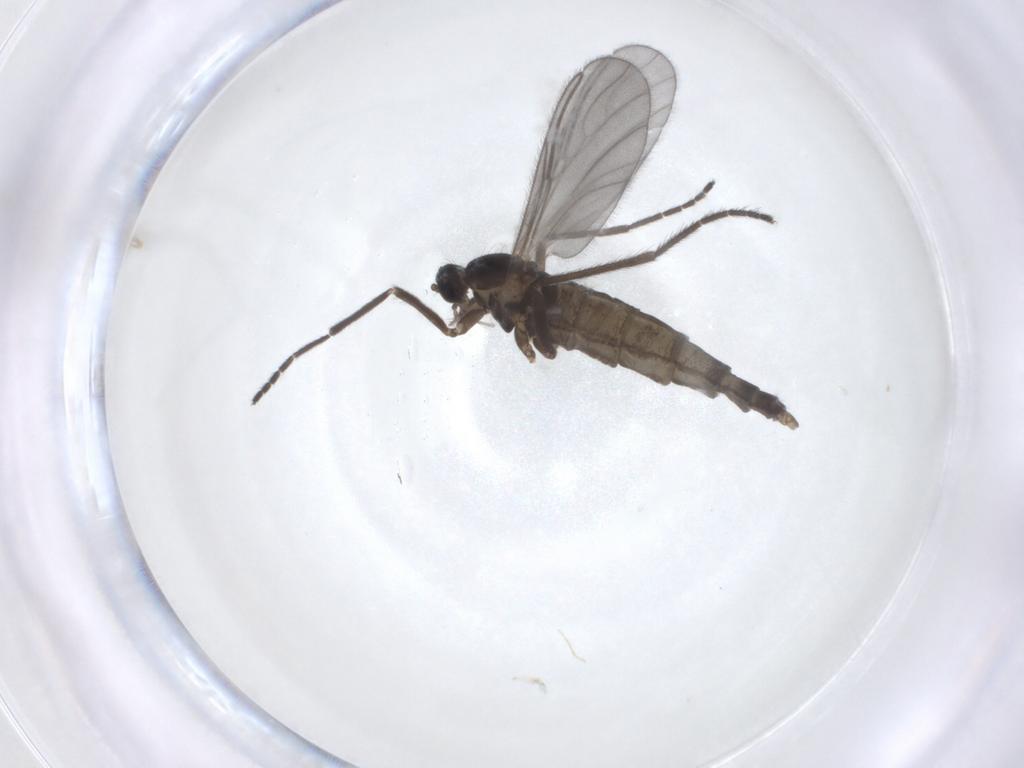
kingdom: Animalia
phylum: Arthropoda
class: Insecta
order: Diptera
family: Cecidomyiidae
